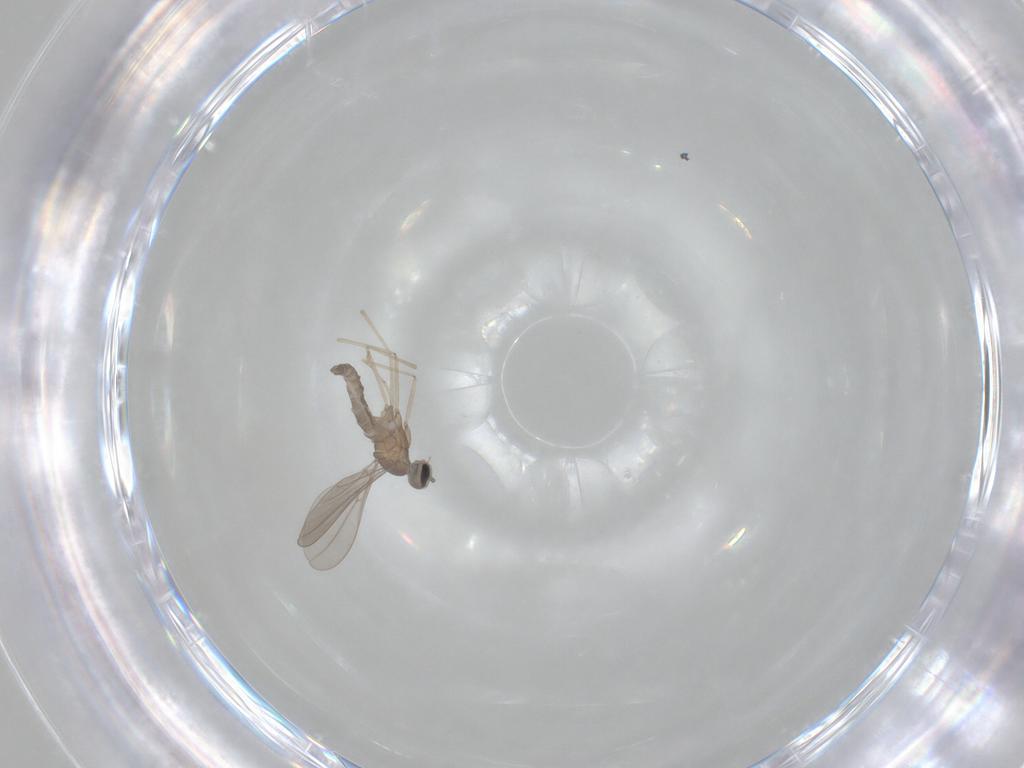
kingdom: Animalia
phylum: Arthropoda
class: Insecta
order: Diptera
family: Cecidomyiidae
